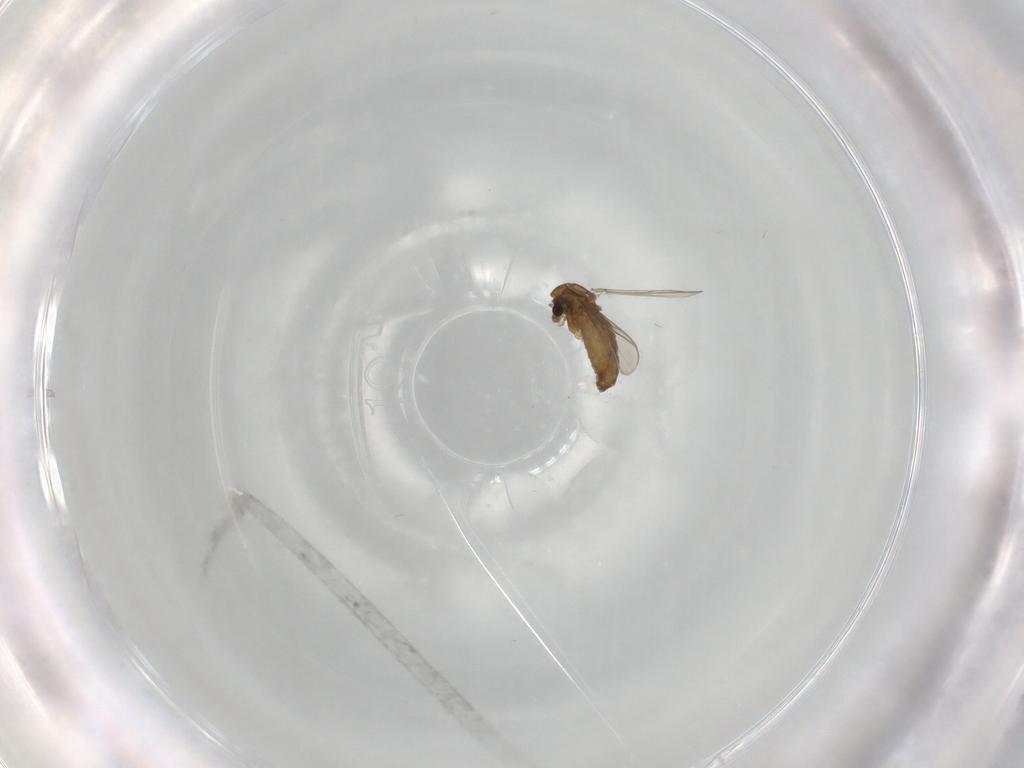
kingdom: Animalia
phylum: Arthropoda
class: Insecta
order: Diptera
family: Chironomidae
